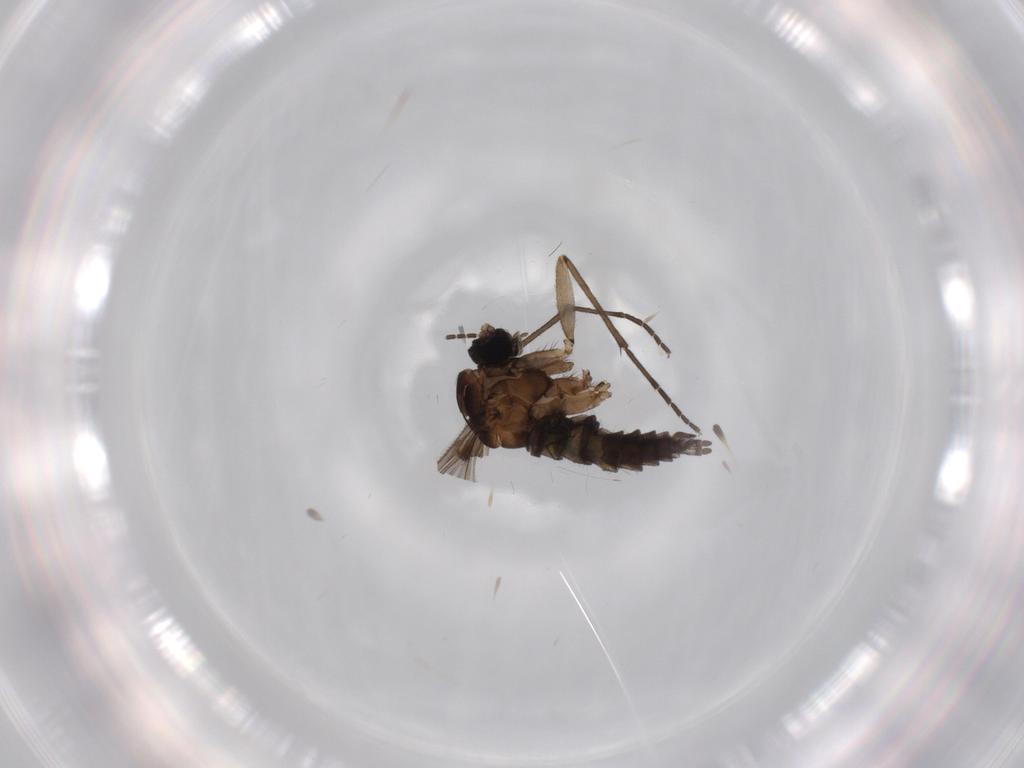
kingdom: Animalia
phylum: Arthropoda
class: Insecta
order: Diptera
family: Sciaridae
